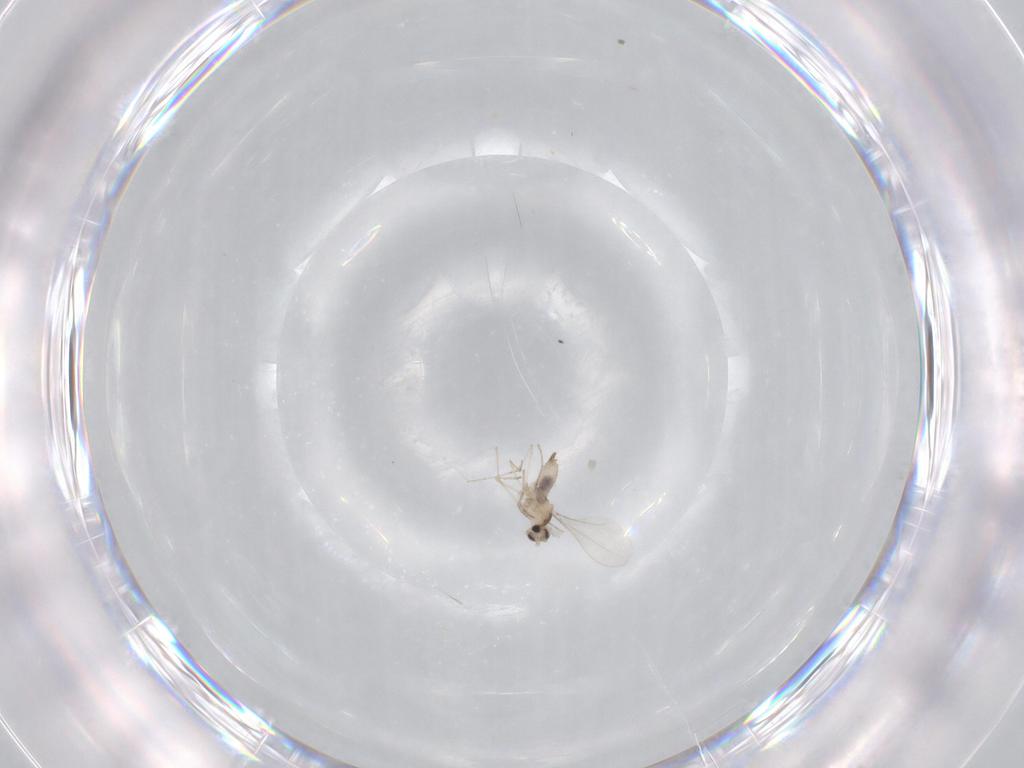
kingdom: Animalia
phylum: Arthropoda
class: Insecta
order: Diptera
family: Cecidomyiidae
